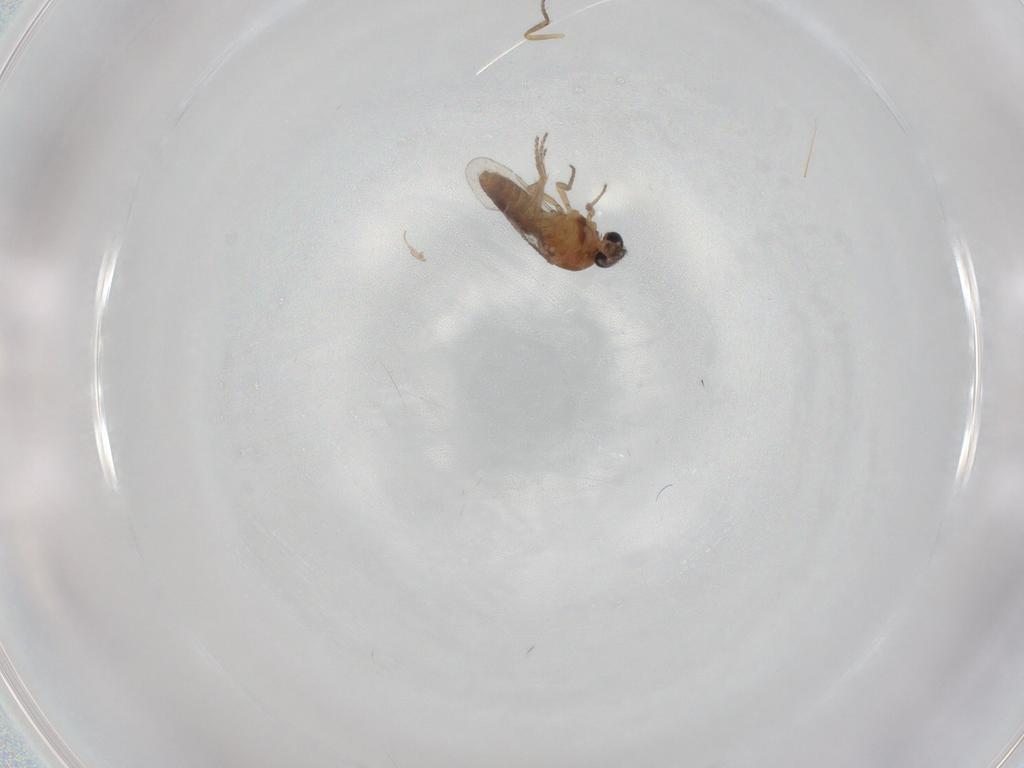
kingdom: Animalia
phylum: Arthropoda
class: Insecta
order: Diptera
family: Ceratopogonidae
